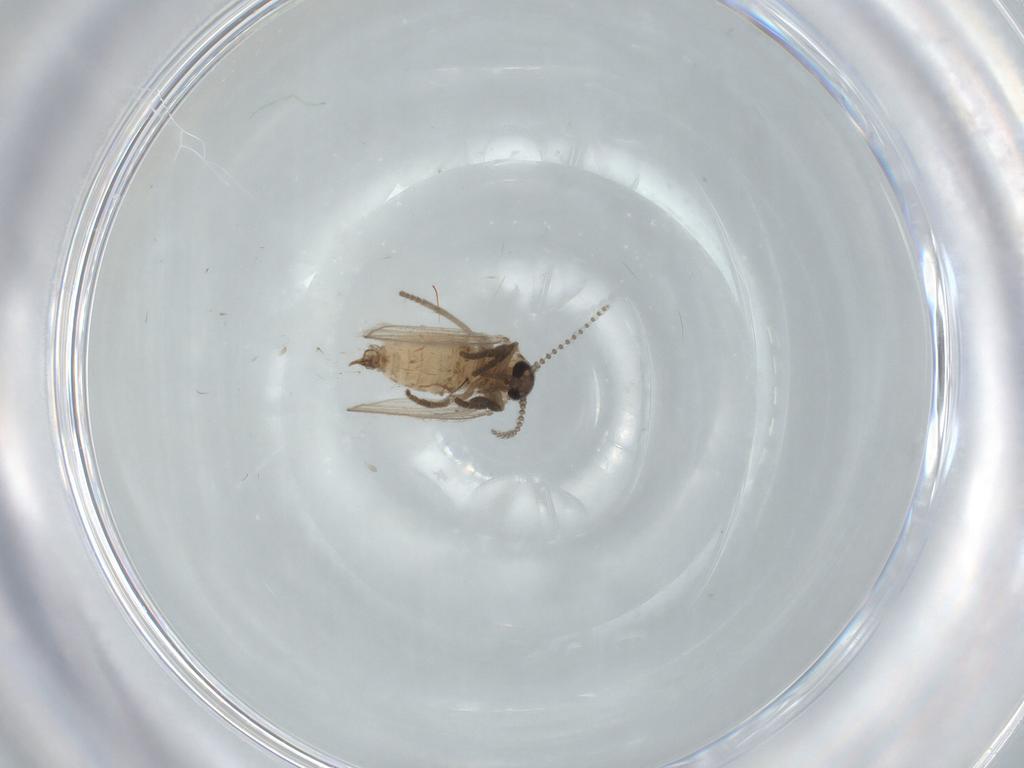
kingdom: Animalia
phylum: Arthropoda
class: Insecta
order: Diptera
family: Psychodidae
